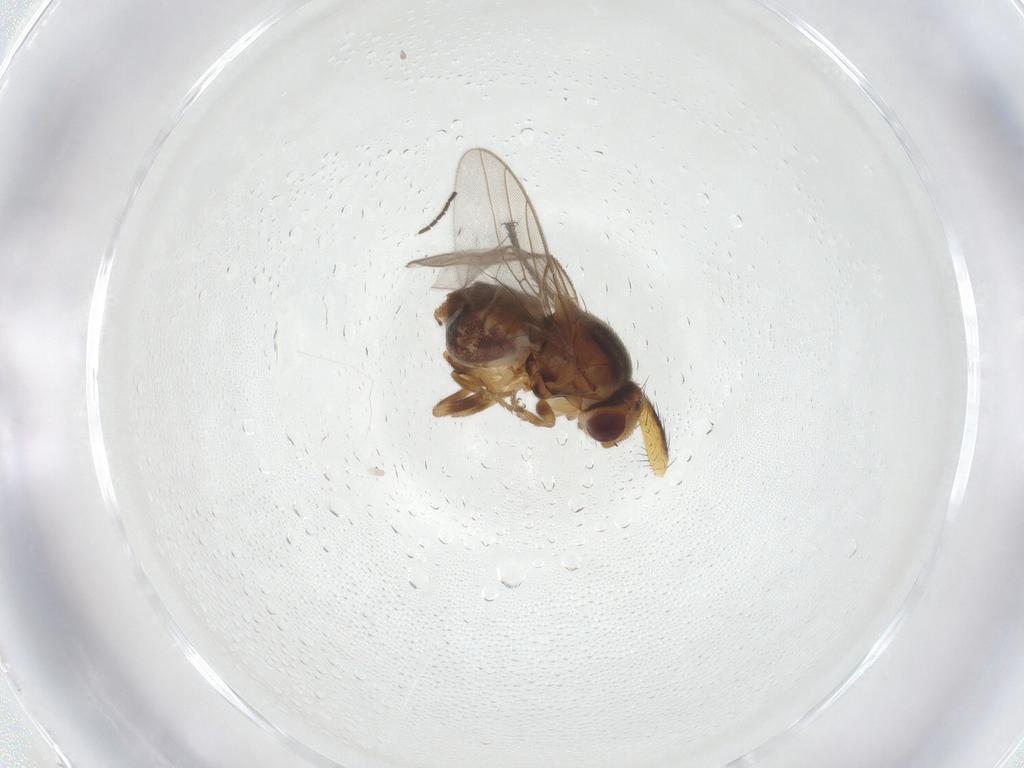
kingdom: Animalia
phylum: Arthropoda
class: Insecta
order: Diptera
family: Chloropidae
